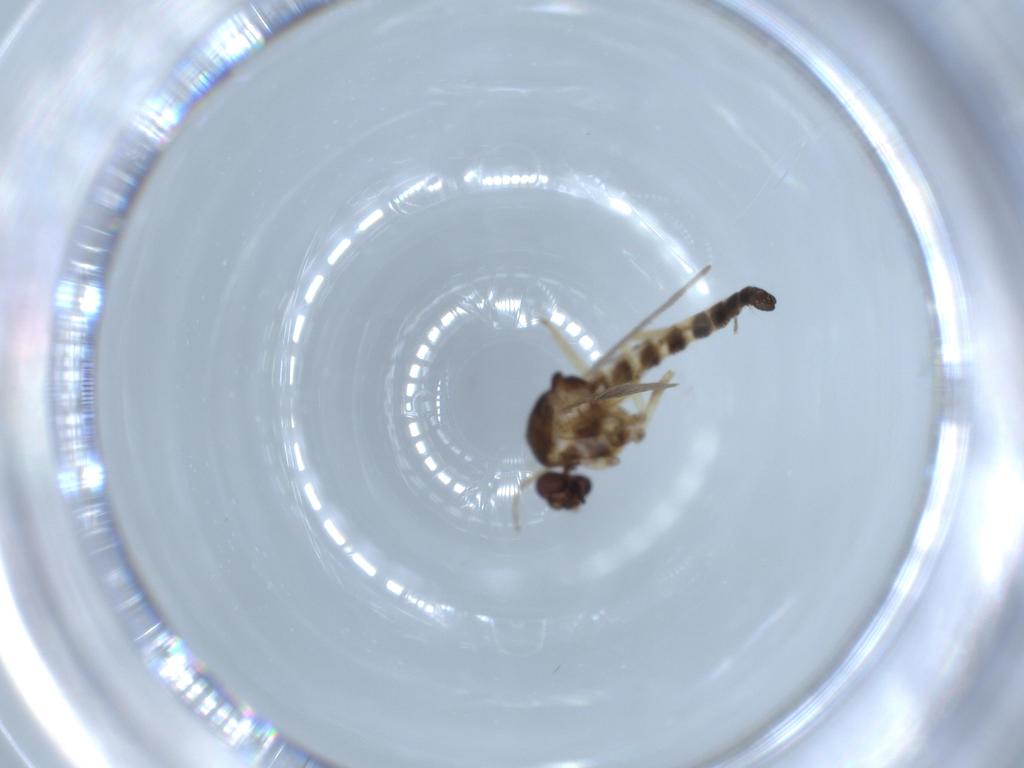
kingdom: Animalia
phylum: Arthropoda
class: Insecta
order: Diptera
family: Ceratopogonidae
